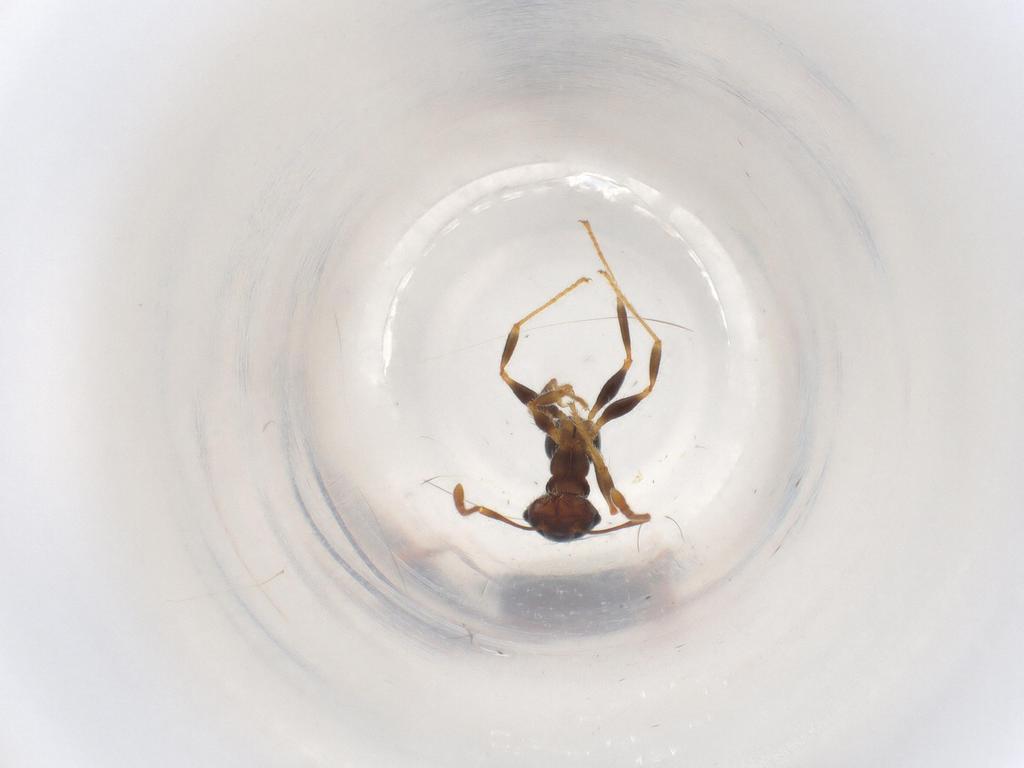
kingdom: Animalia
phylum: Arthropoda
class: Insecta
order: Hymenoptera
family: Formicidae
